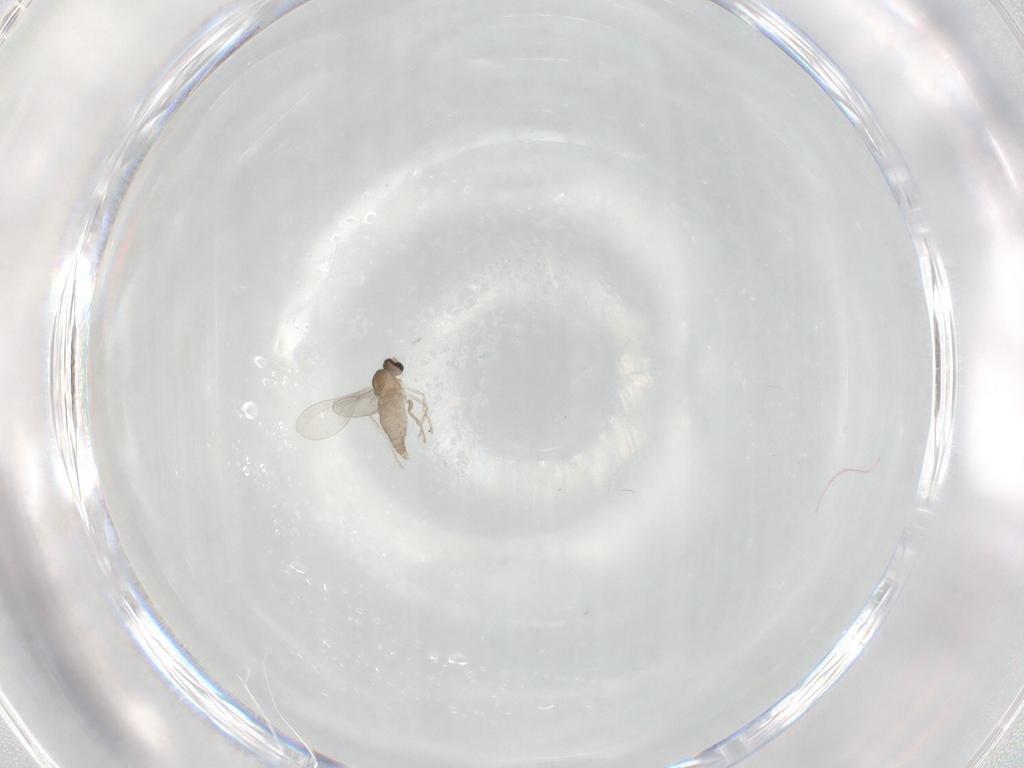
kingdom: Animalia
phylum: Arthropoda
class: Insecta
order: Diptera
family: Cecidomyiidae
